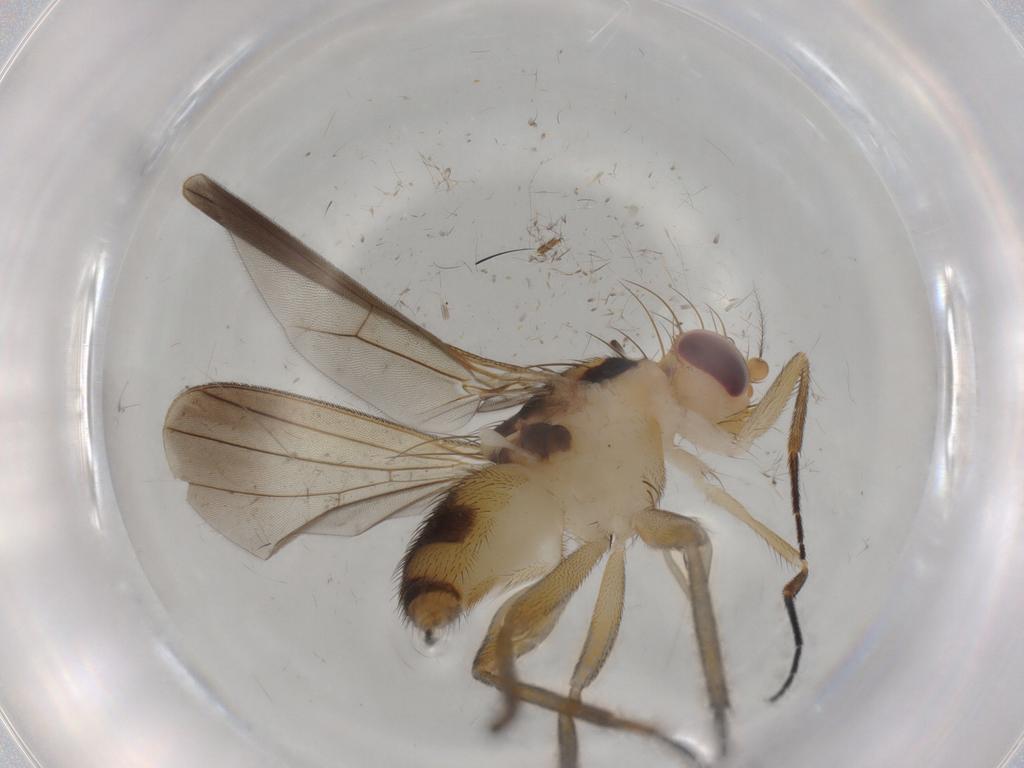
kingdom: Animalia
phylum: Arthropoda
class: Insecta
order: Diptera
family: Clusiidae
